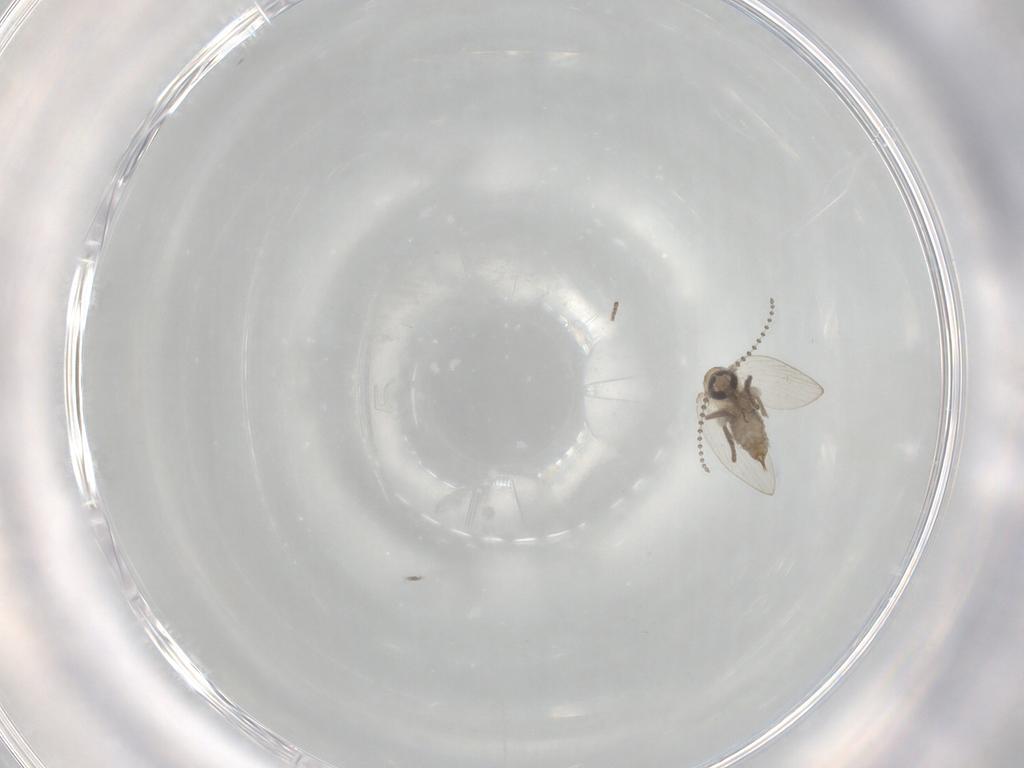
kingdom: Animalia
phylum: Arthropoda
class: Insecta
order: Diptera
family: Psychodidae
